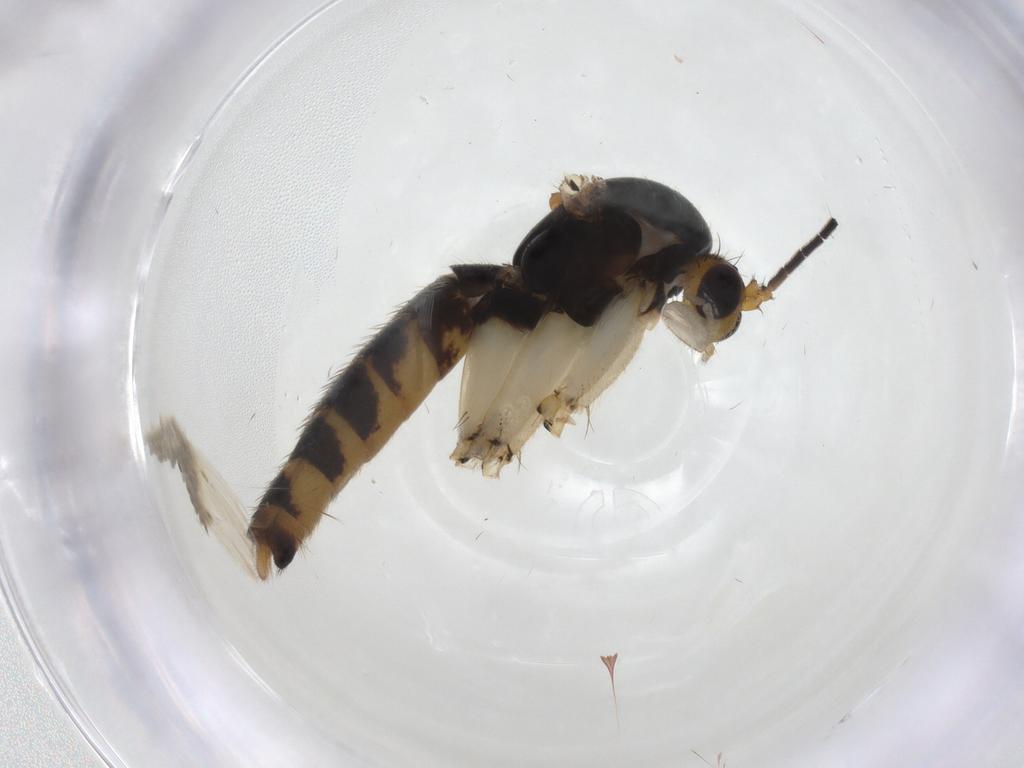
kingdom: Animalia
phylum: Arthropoda
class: Insecta
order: Diptera
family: Mycetophilidae
